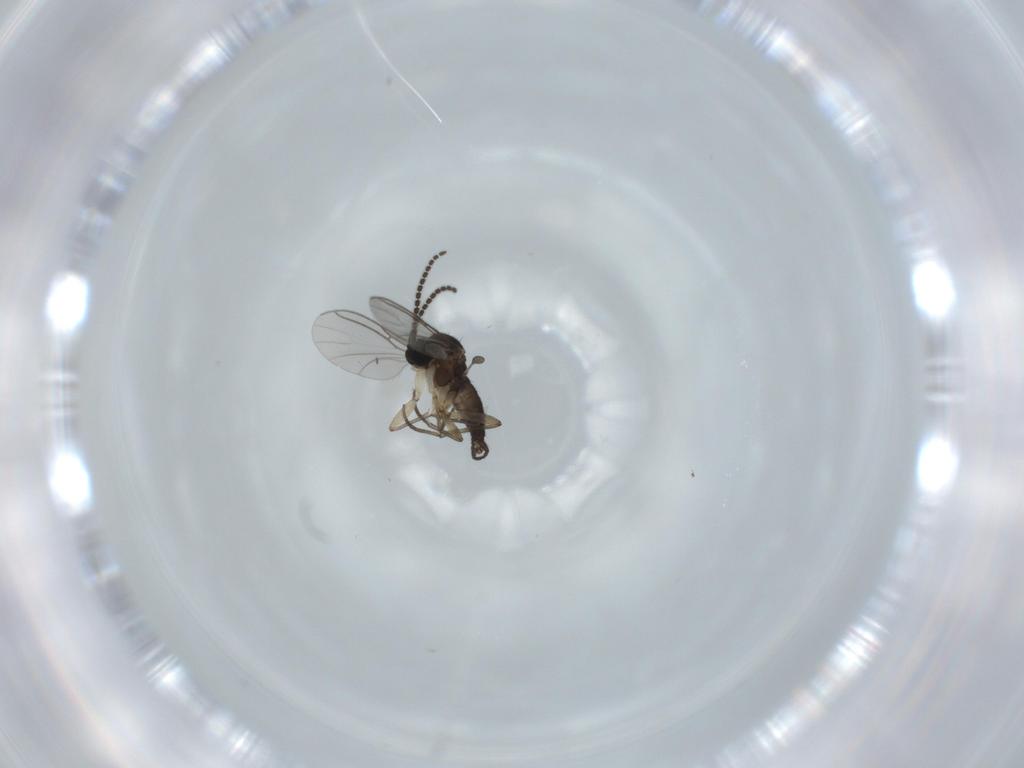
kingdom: Animalia
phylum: Arthropoda
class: Insecta
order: Diptera
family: Sciaridae
